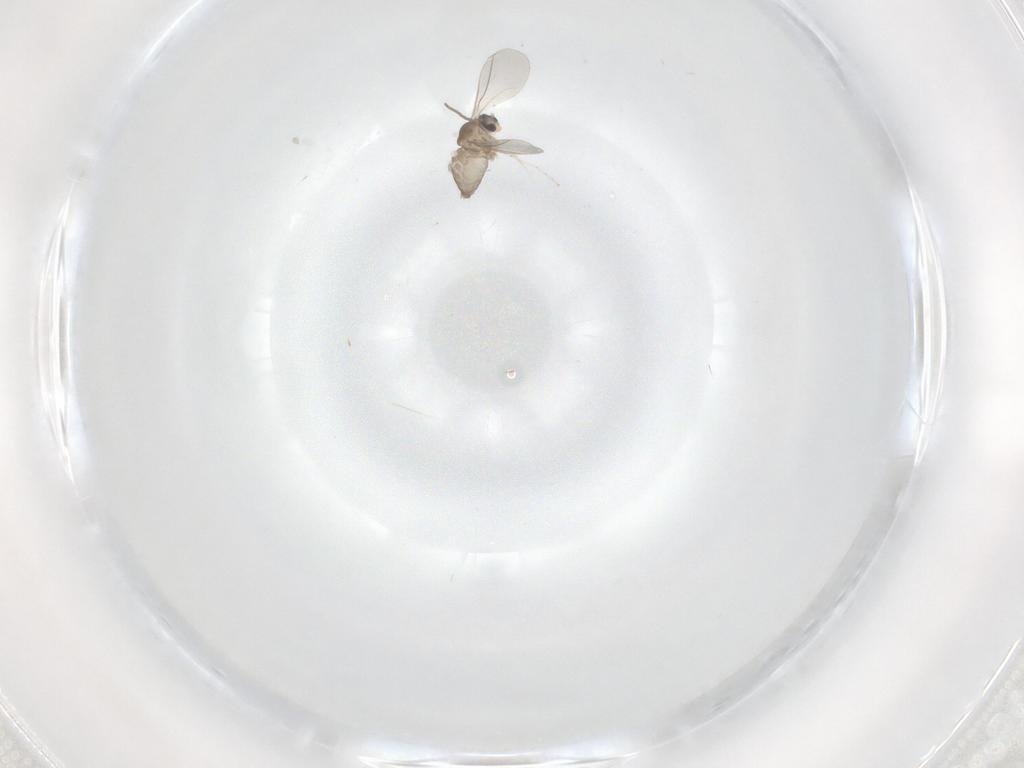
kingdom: Animalia
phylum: Arthropoda
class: Insecta
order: Diptera
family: Cecidomyiidae
